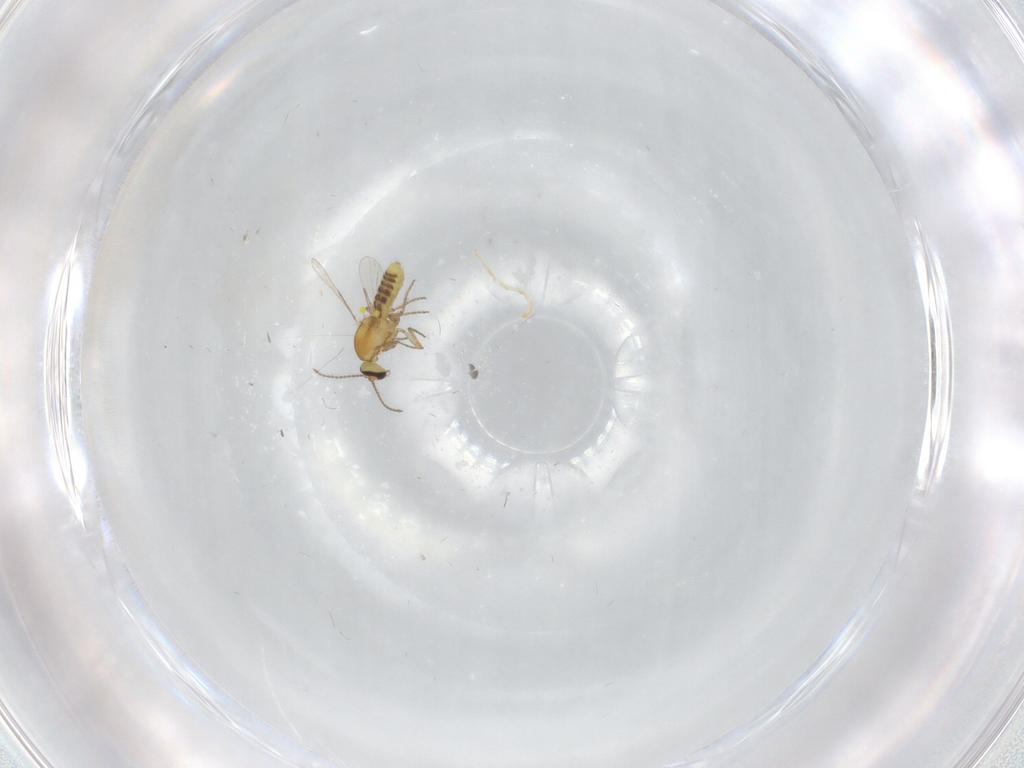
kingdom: Animalia
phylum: Arthropoda
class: Insecta
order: Diptera
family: Ceratopogonidae
